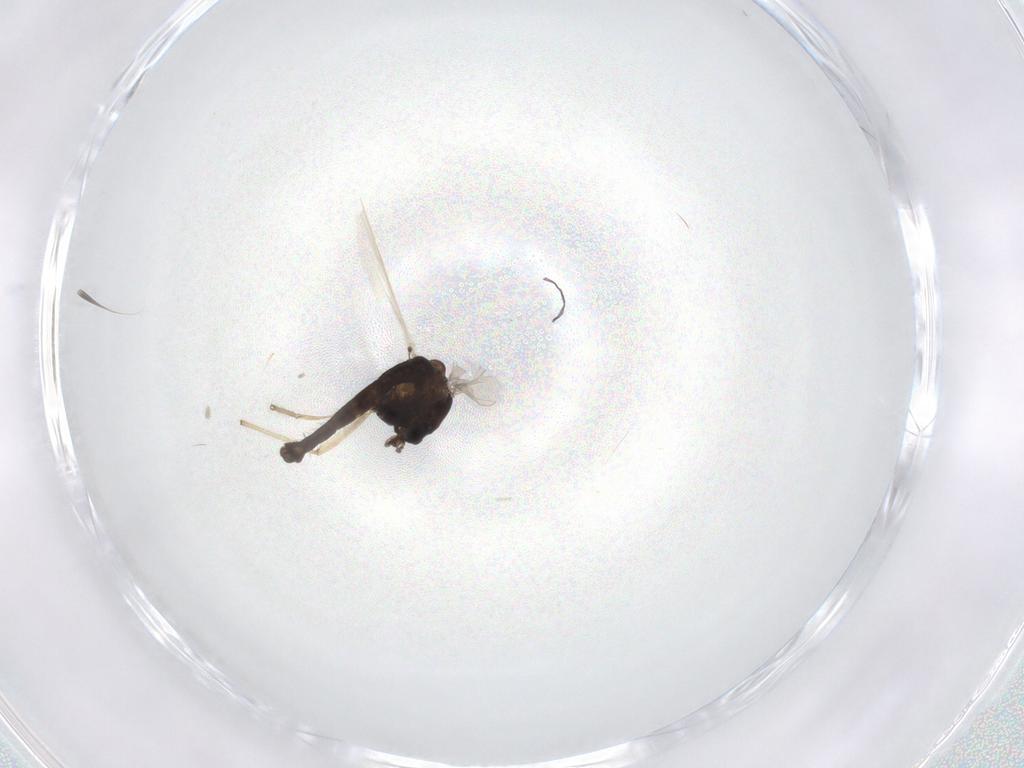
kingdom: Animalia
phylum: Arthropoda
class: Insecta
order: Diptera
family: Chironomidae
